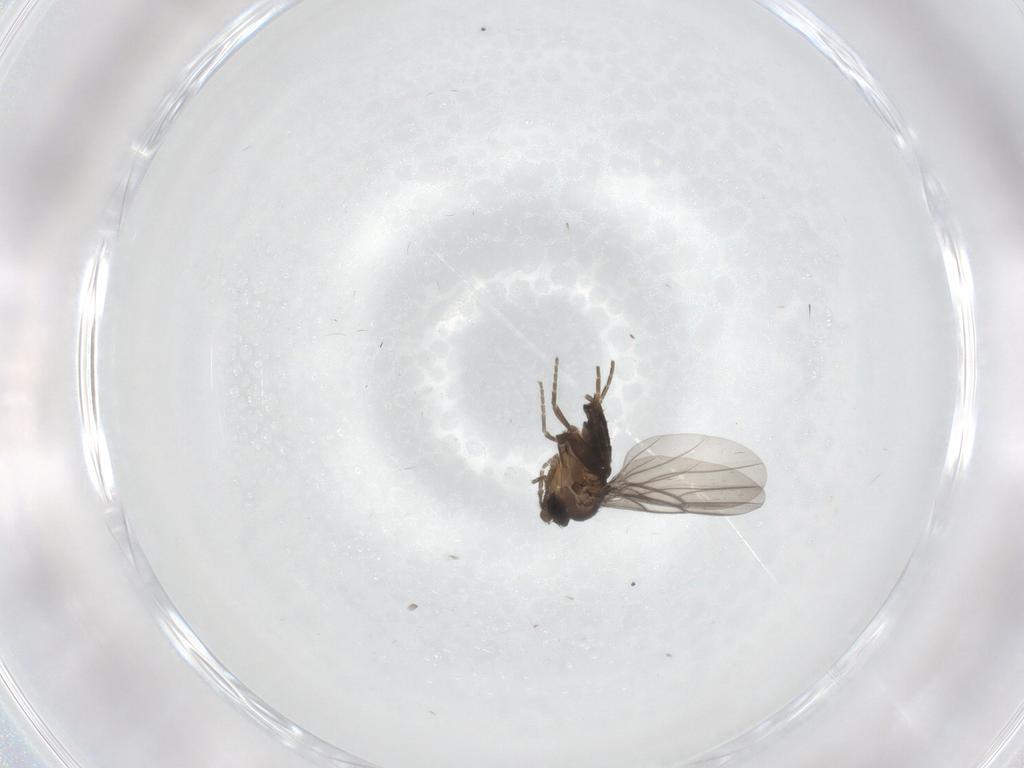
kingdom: Animalia
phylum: Arthropoda
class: Insecta
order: Diptera
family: Phoridae
